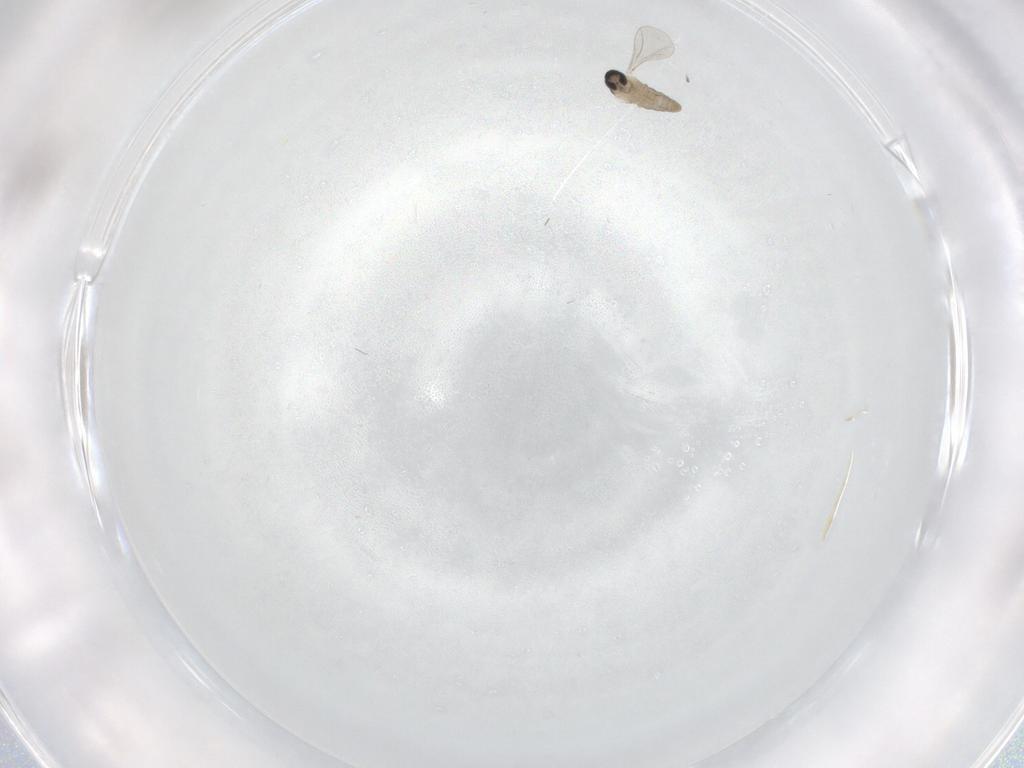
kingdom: Animalia
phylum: Arthropoda
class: Insecta
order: Diptera
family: Cecidomyiidae
